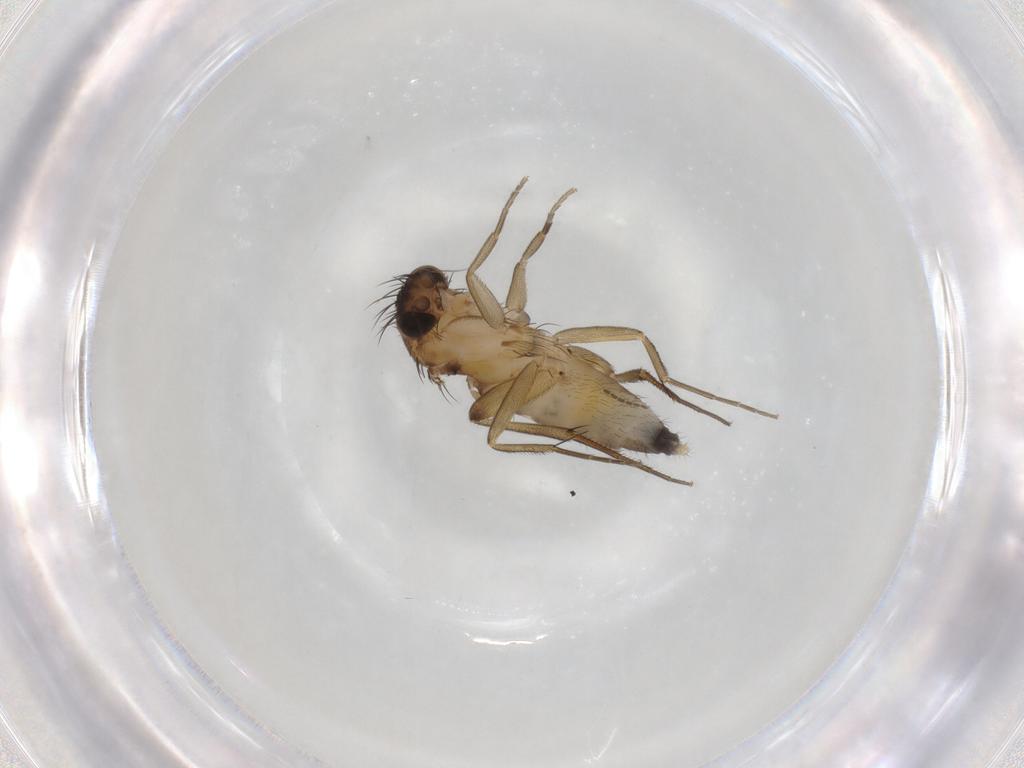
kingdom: Animalia
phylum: Arthropoda
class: Insecta
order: Diptera
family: Phoridae
